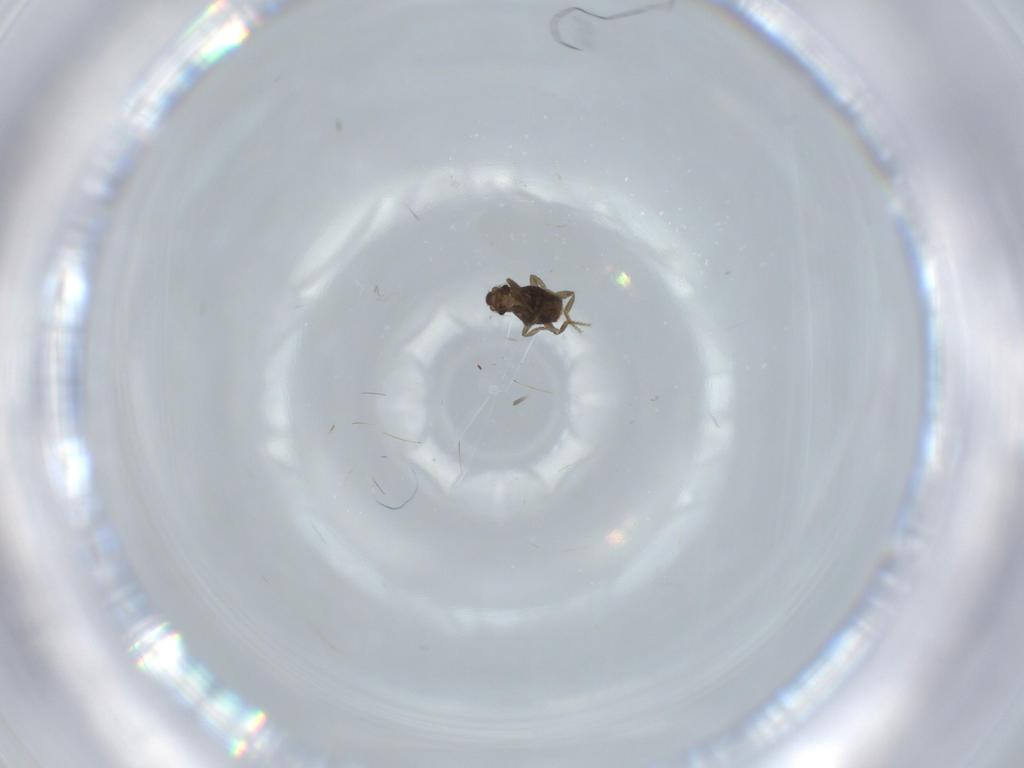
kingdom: Animalia
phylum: Arthropoda
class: Insecta
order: Diptera
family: Phoridae
